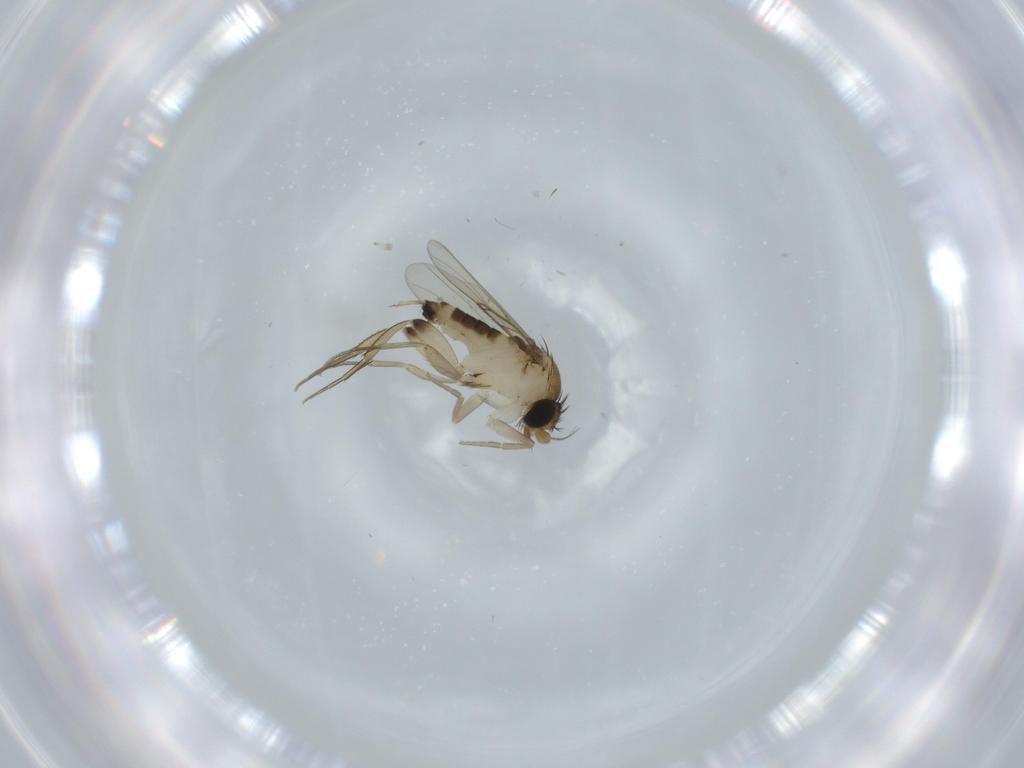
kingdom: Animalia
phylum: Arthropoda
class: Insecta
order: Diptera
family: Phoridae
